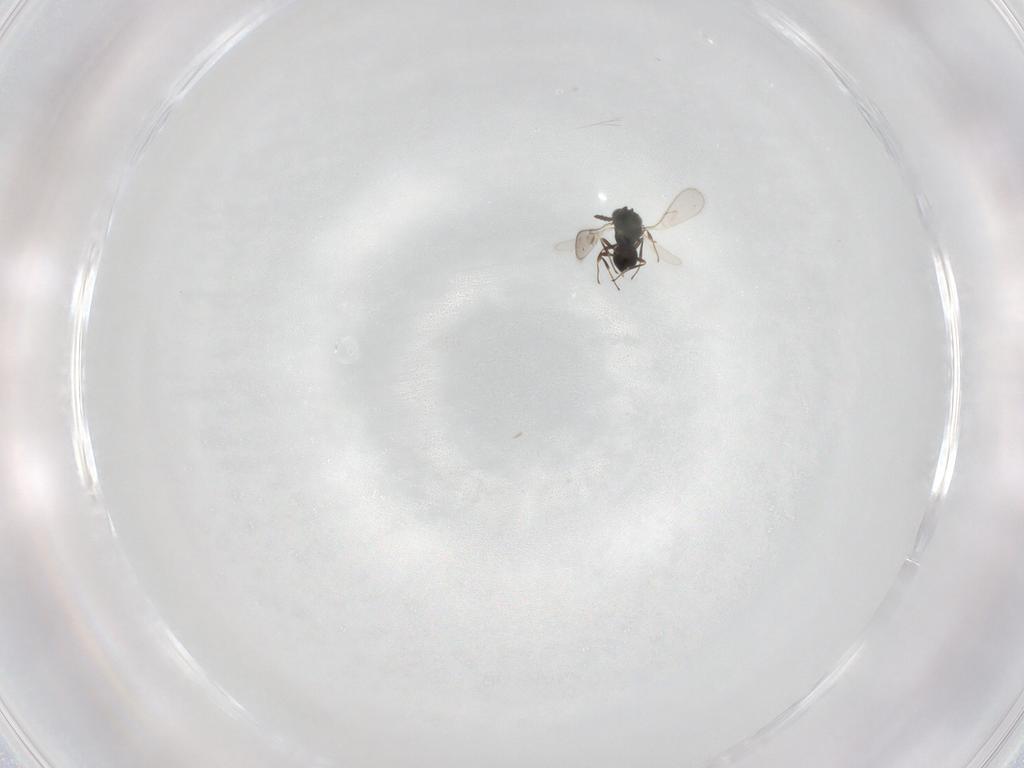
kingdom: Animalia
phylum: Arthropoda
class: Insecta
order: Hymenoptera
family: Scelionidae
